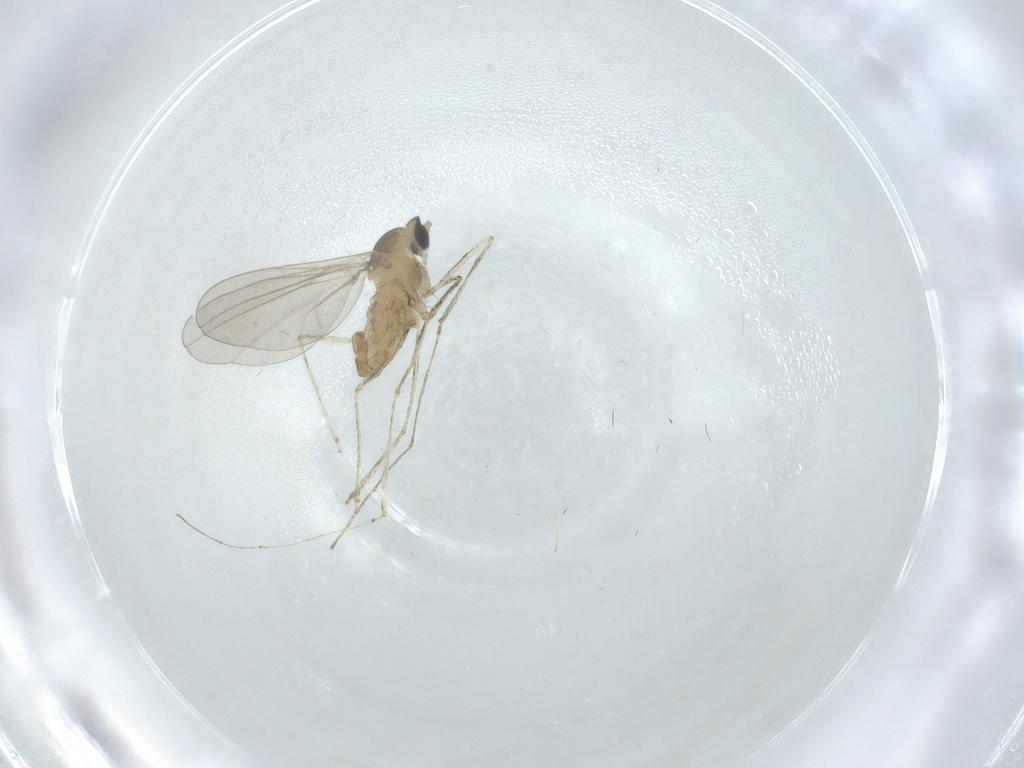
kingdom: Animalia
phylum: Arthropoda
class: Insecta
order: Diptera
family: Cecidomyiidae
